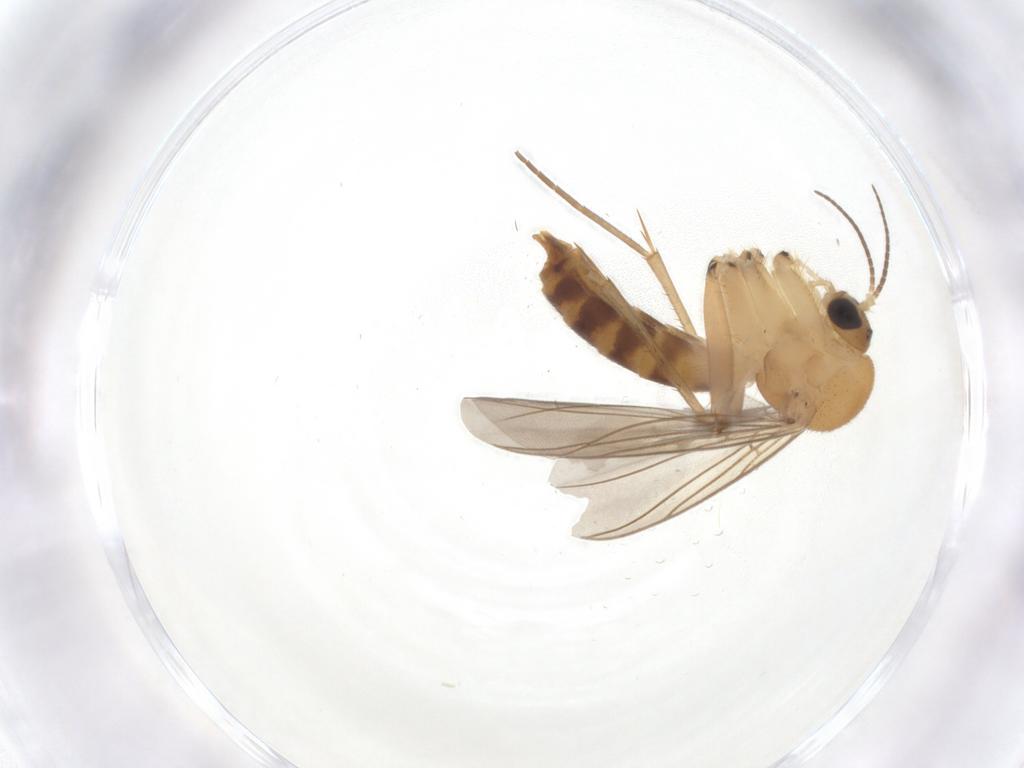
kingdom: Animalia
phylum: Arthropoda
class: Insecta
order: Diptera
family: Mycetophilidae
